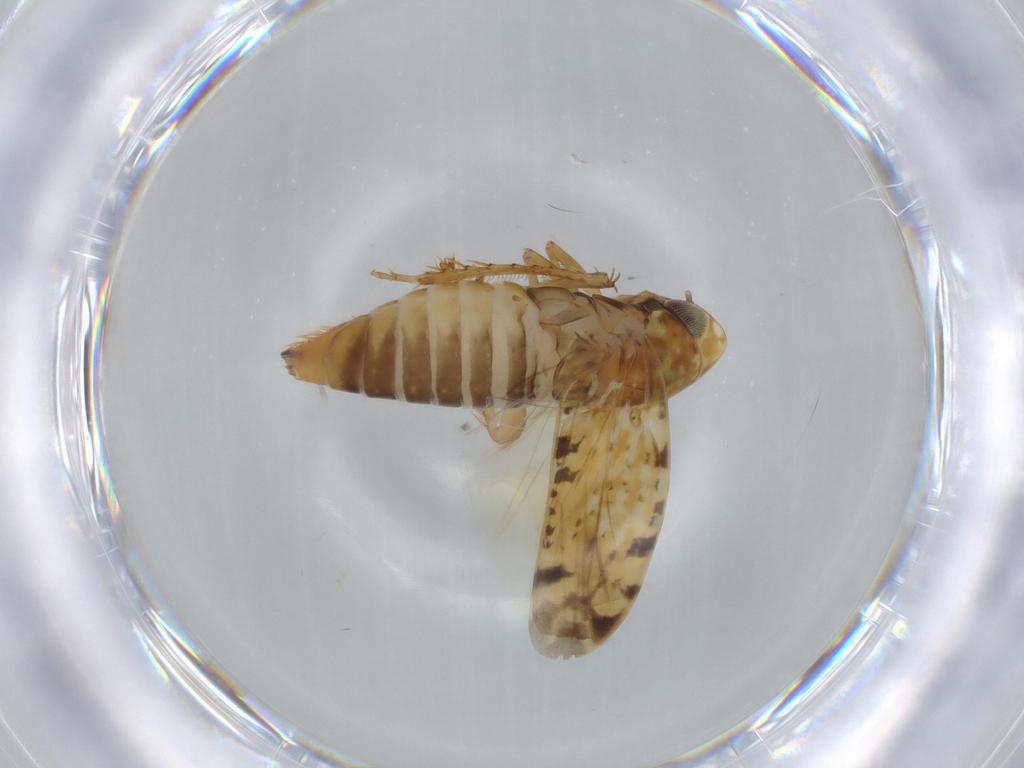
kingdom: Animalia
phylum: Arthropoda
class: Insecta
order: Hemiptera
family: Cicadellidae
